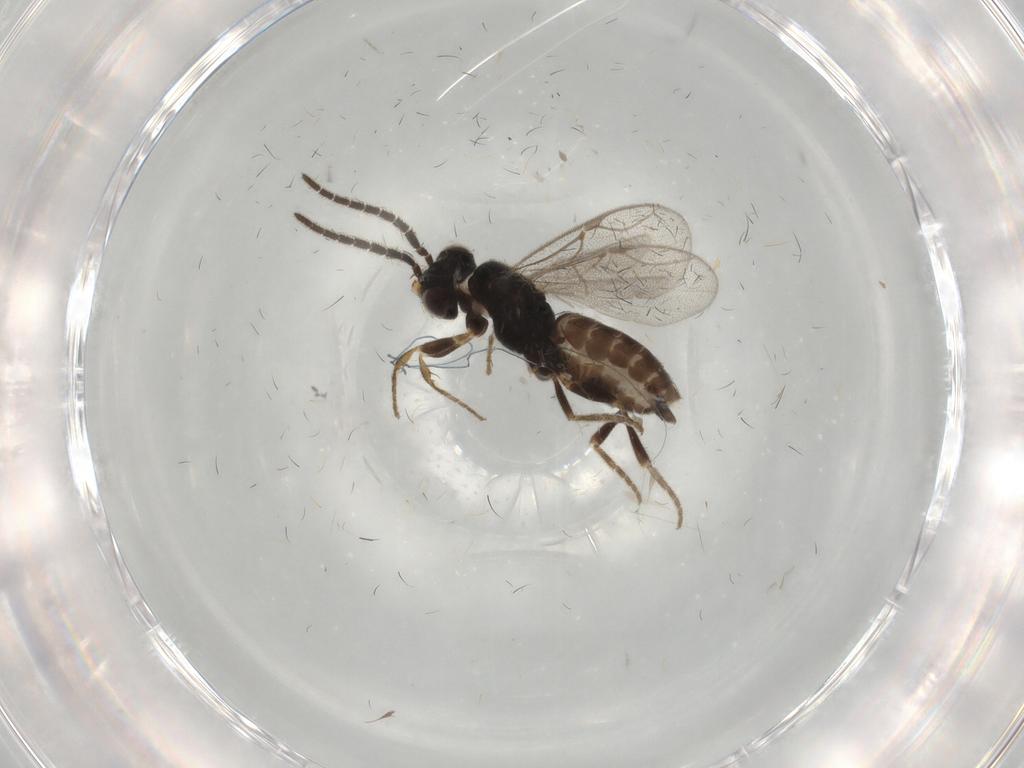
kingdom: Animalia
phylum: Arthropoda
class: Insecta
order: Hymenoptera
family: Dryinidae
